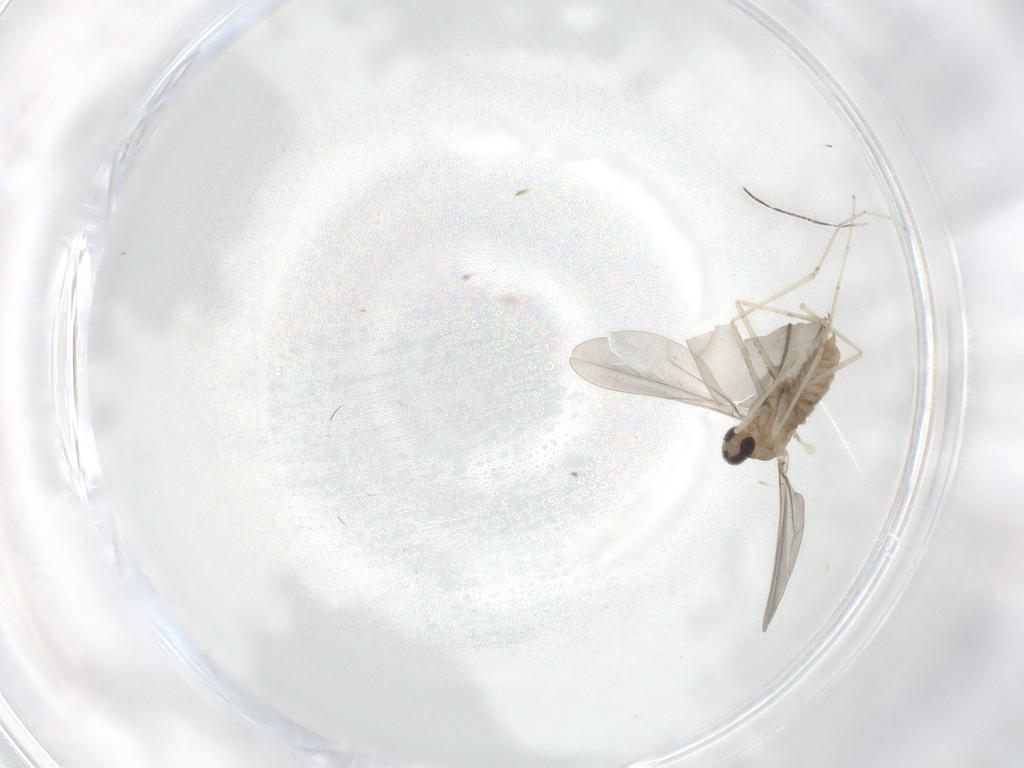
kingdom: Animalia
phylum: Arthropoda
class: Insecta
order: Diptera
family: Cecidomyiidae
